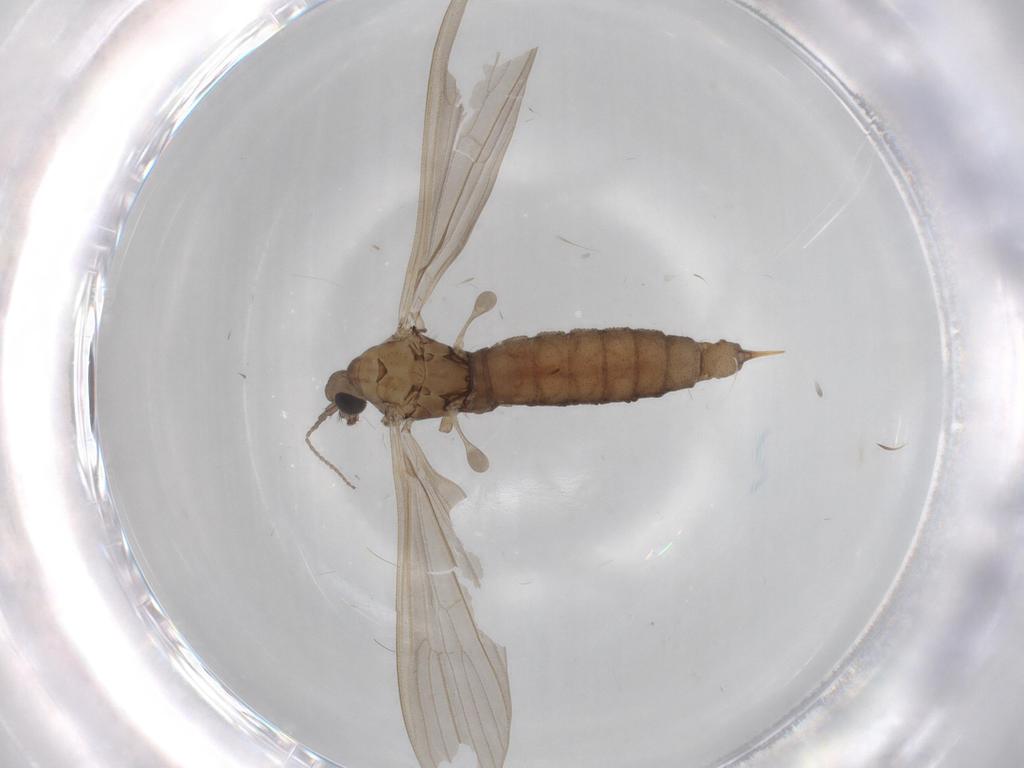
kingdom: Animalia
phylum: Arthropoda
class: Insecta
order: Diptera
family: Limoniidae
